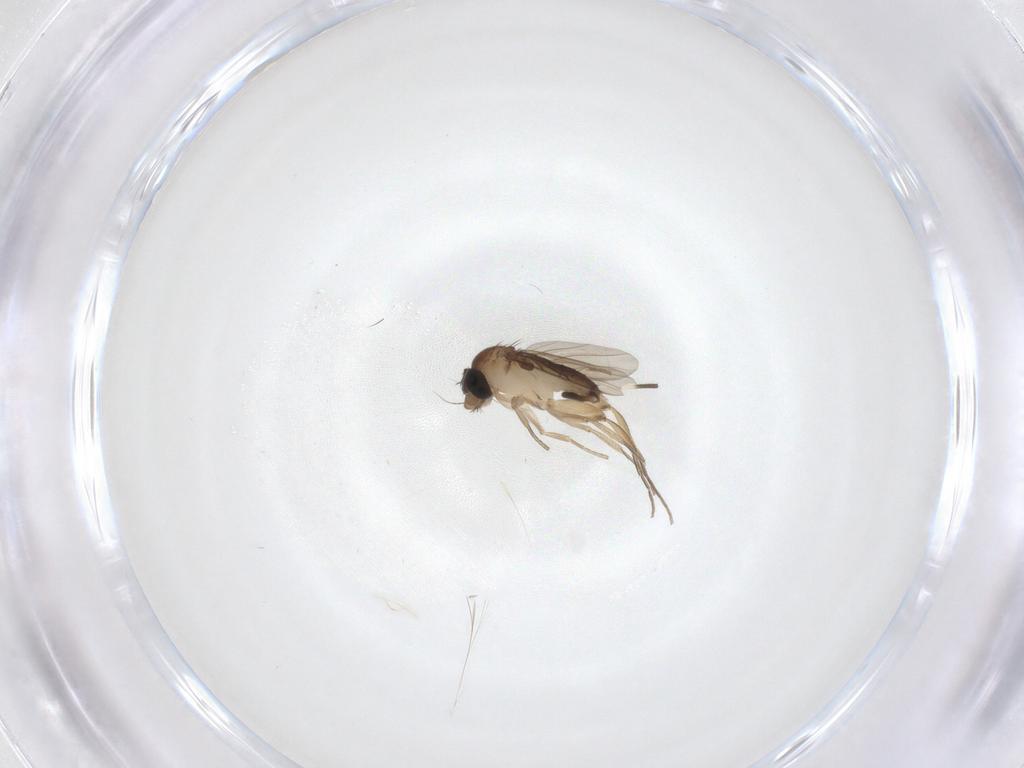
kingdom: Animalia
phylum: Arthropoda
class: Insecta
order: Diptera
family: Phoridae
